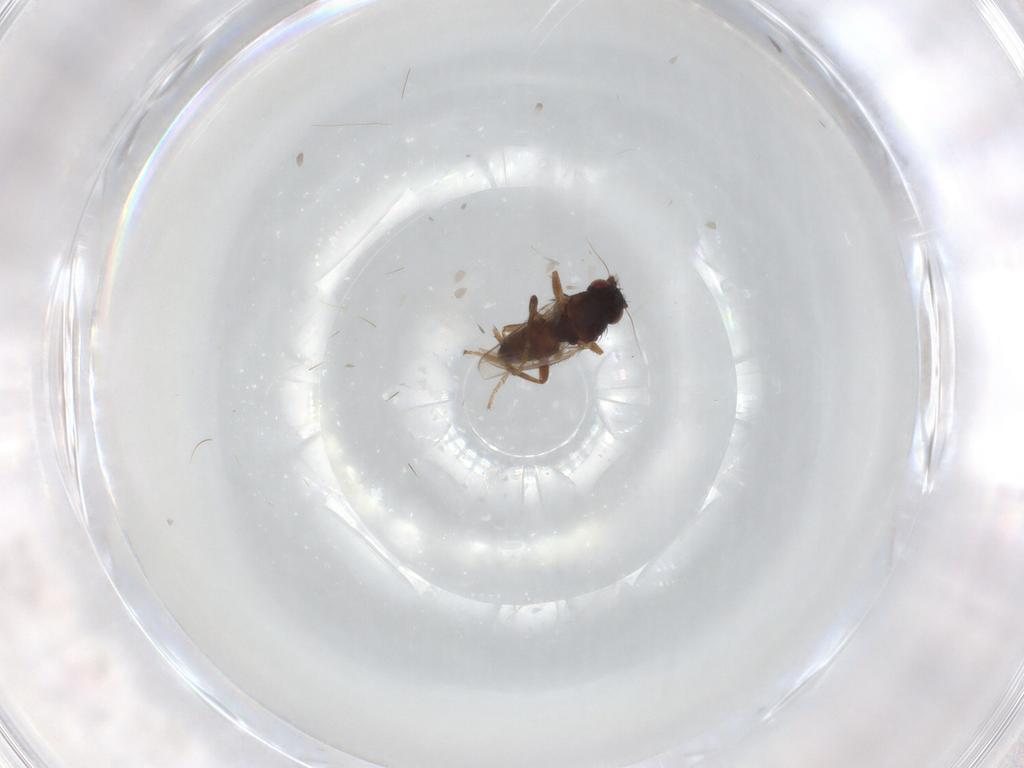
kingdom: Animalia
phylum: Arthropoda
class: Insecta
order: Diptera
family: Sphaeroceridae
